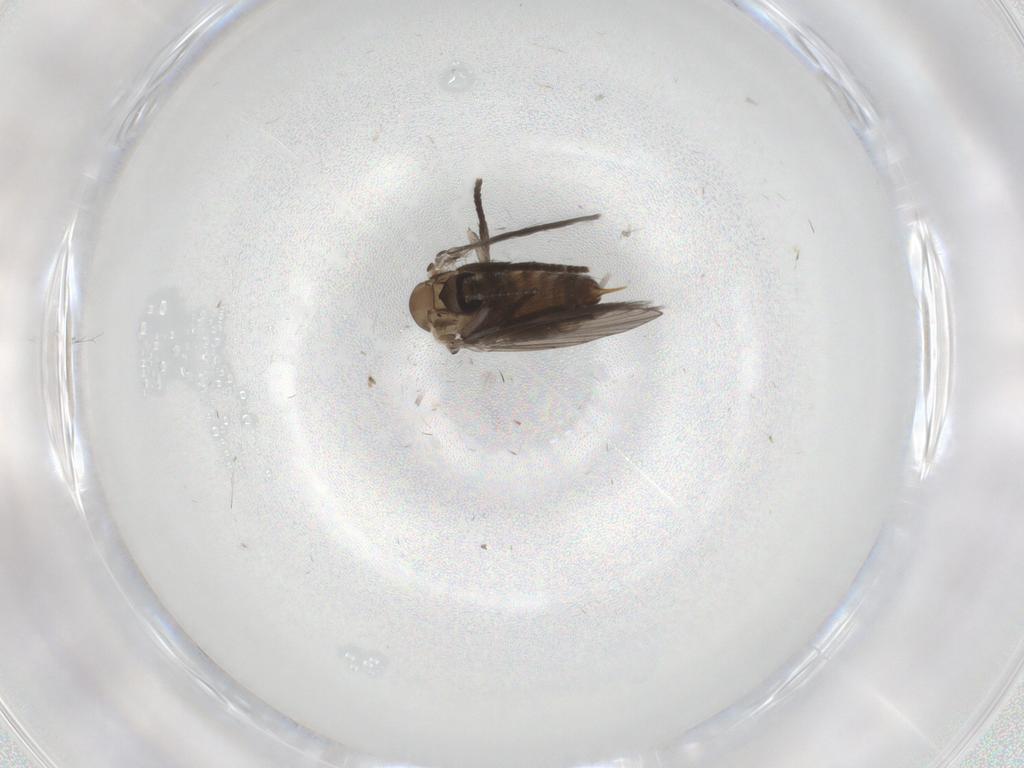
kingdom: Animalia
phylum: Arthropoda
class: Insecta
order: Diptera
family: Psychodidae
